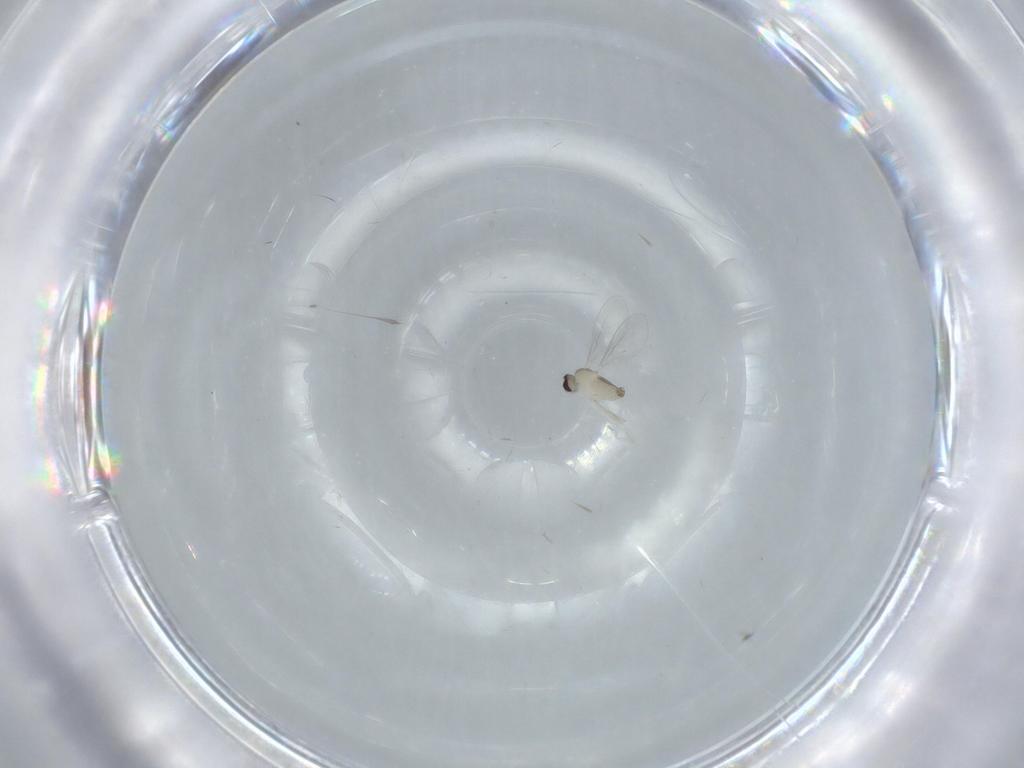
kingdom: Animalia
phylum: Arthropoda
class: Insecta
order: Diptera
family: Cecidomyiidae
